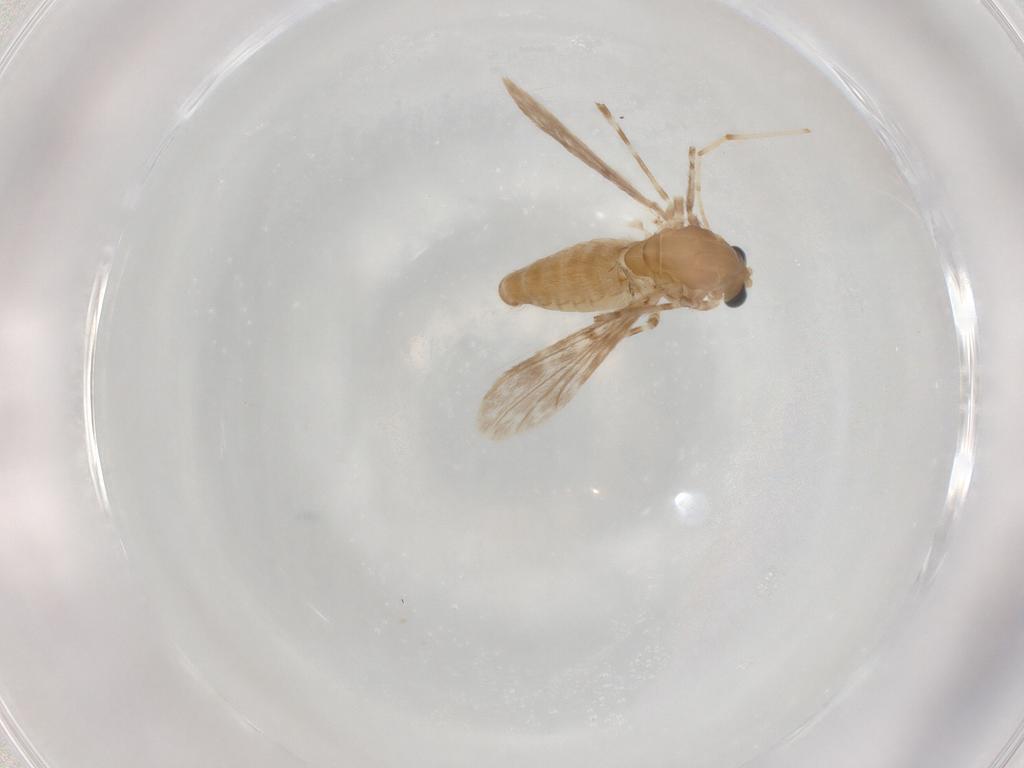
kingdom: Animalia
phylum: Arthropoda
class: Insecta
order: Diptera
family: Chironomidae
